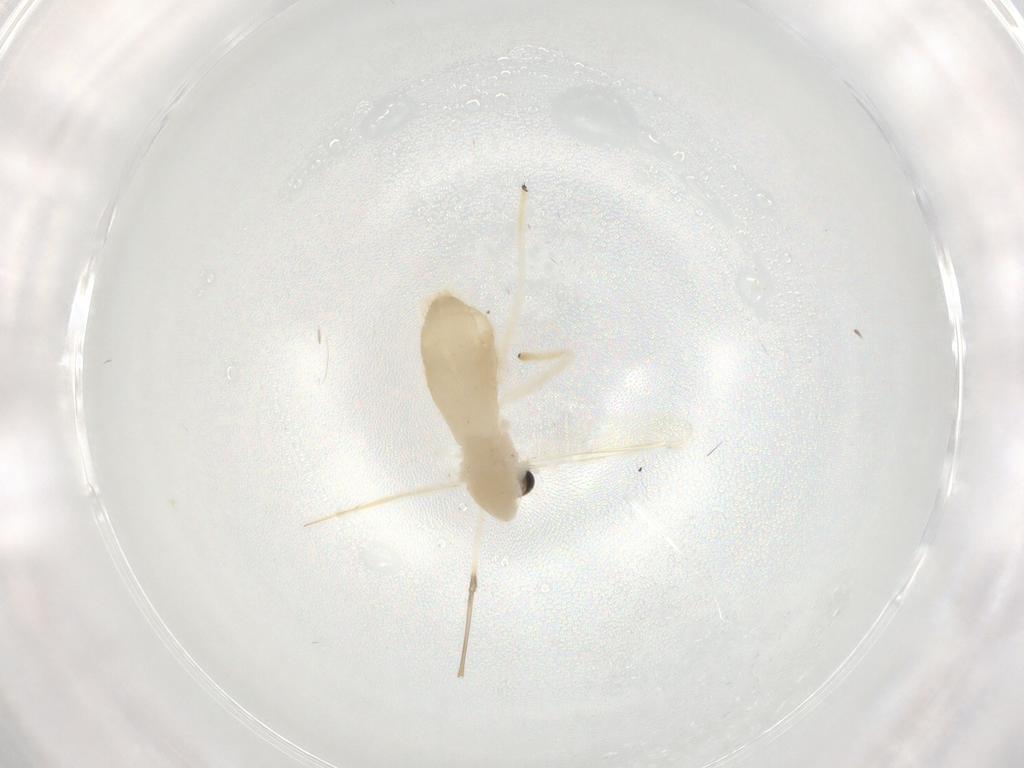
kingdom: Animalia
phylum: Arthropoda
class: Insecta
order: Diptera
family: Chironomidae
